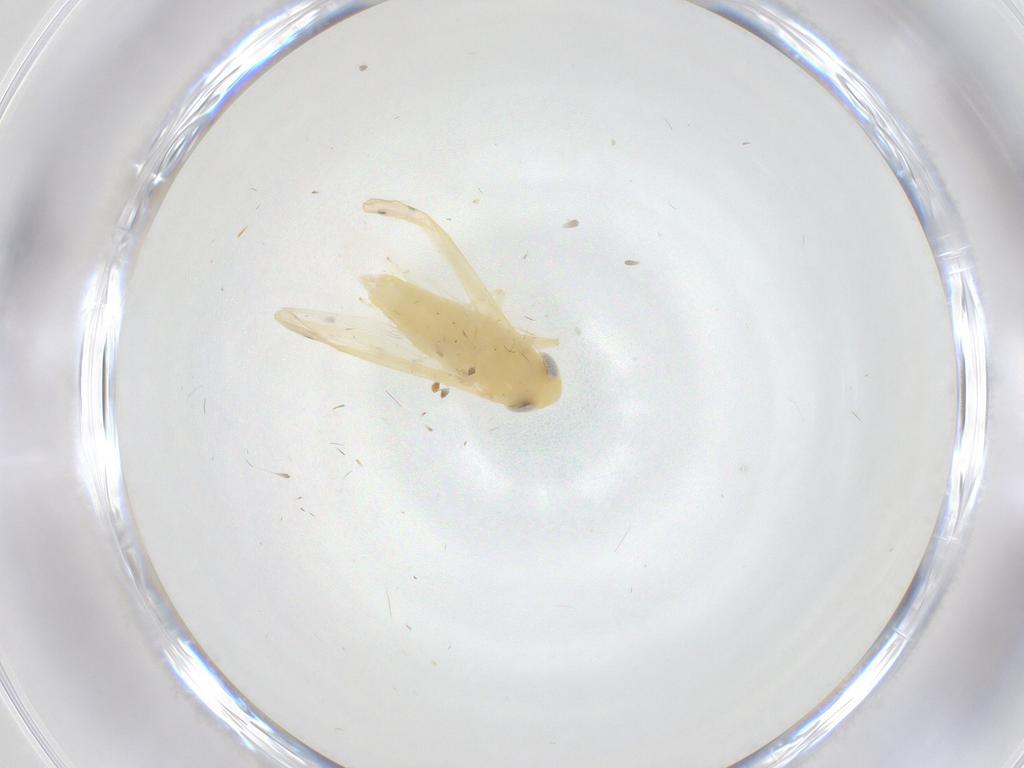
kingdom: Animalia
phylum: Arthropoda
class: Insecta
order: Hemiptera
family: Cicadellidae
